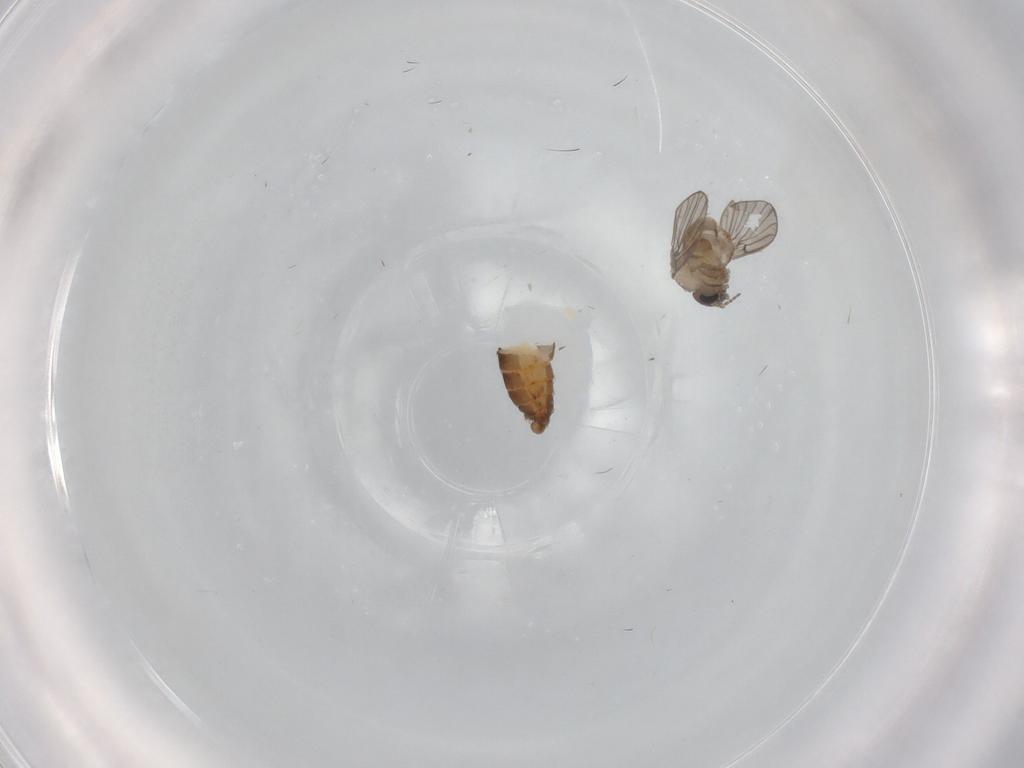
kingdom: Animalia
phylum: Arthropoda
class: Insecta
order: Diptera
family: Psychodidae
